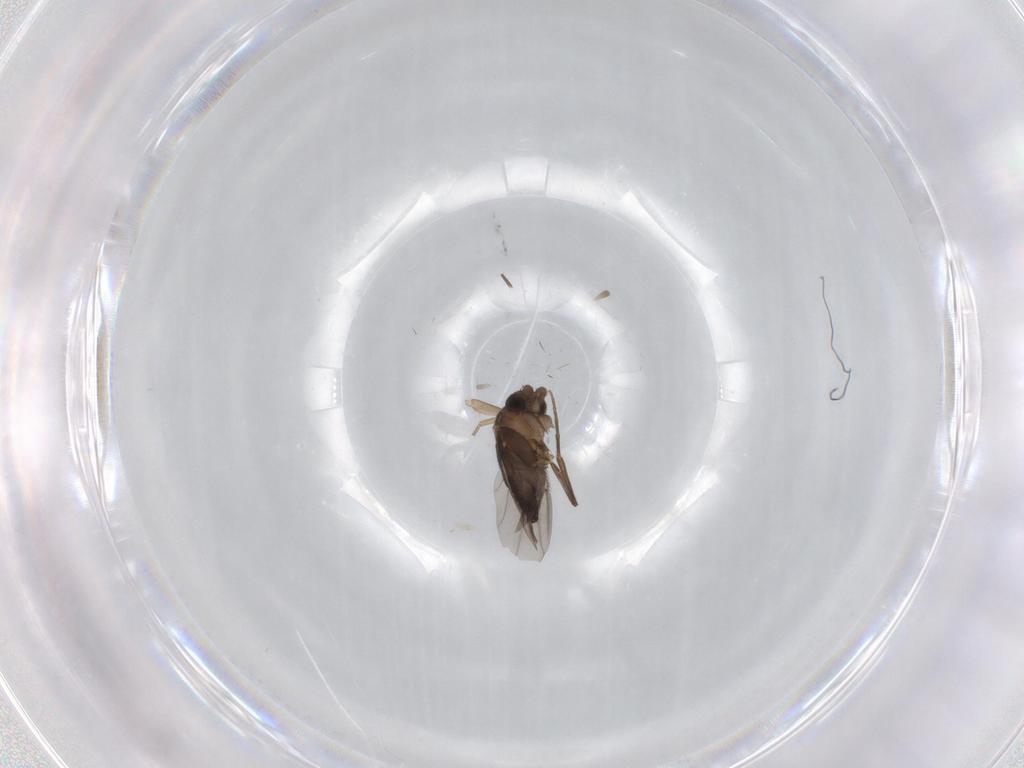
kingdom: Animalia
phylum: Arthropoda
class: Insecta
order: Diptera
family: Phoridae
